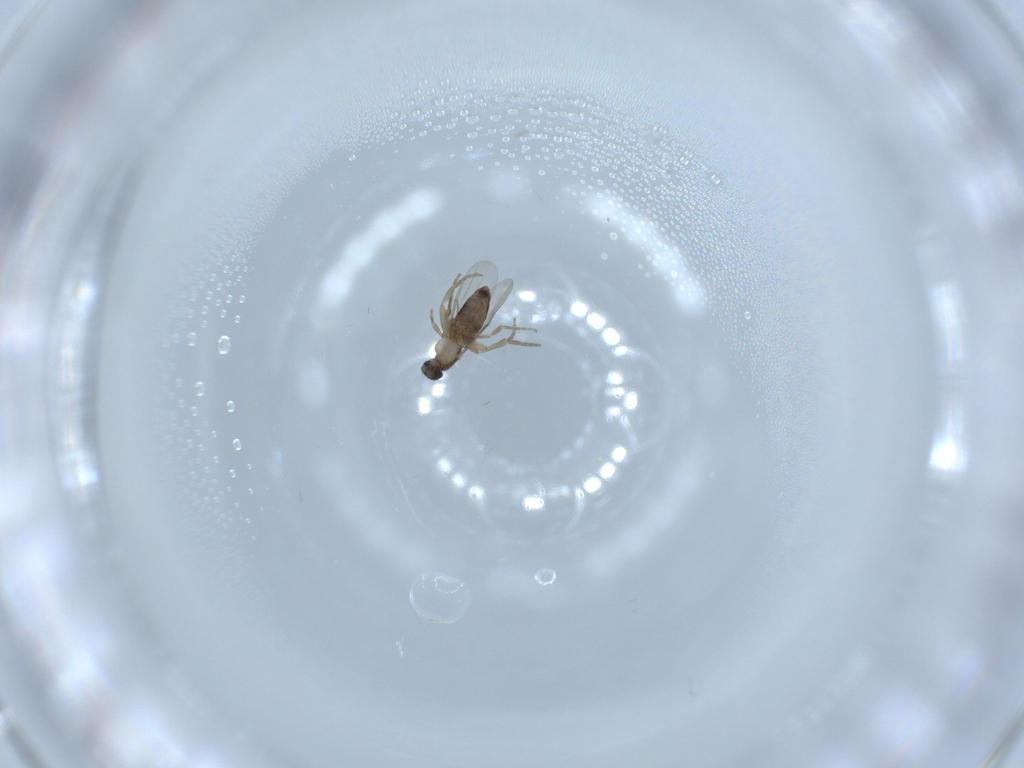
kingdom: Animalia
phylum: Arthropoda
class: Insecta
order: Diptera
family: Phoridae
